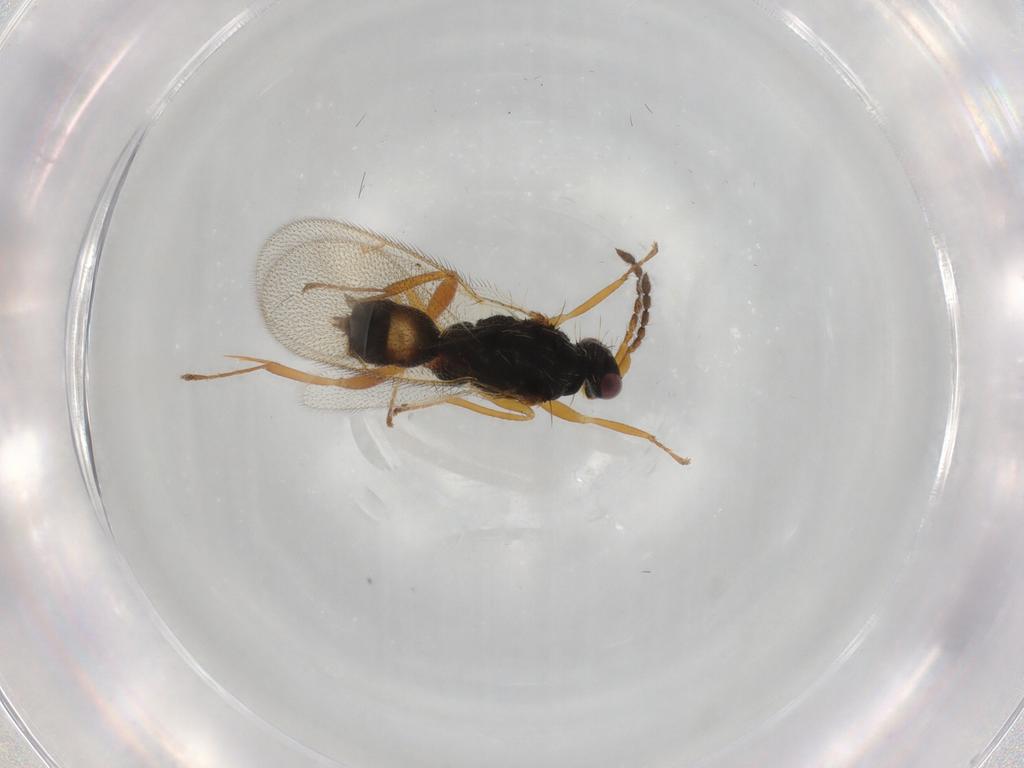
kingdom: Animalia
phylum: Arthropoda
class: Insecta
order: Hymenoptera
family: Eulophidae
